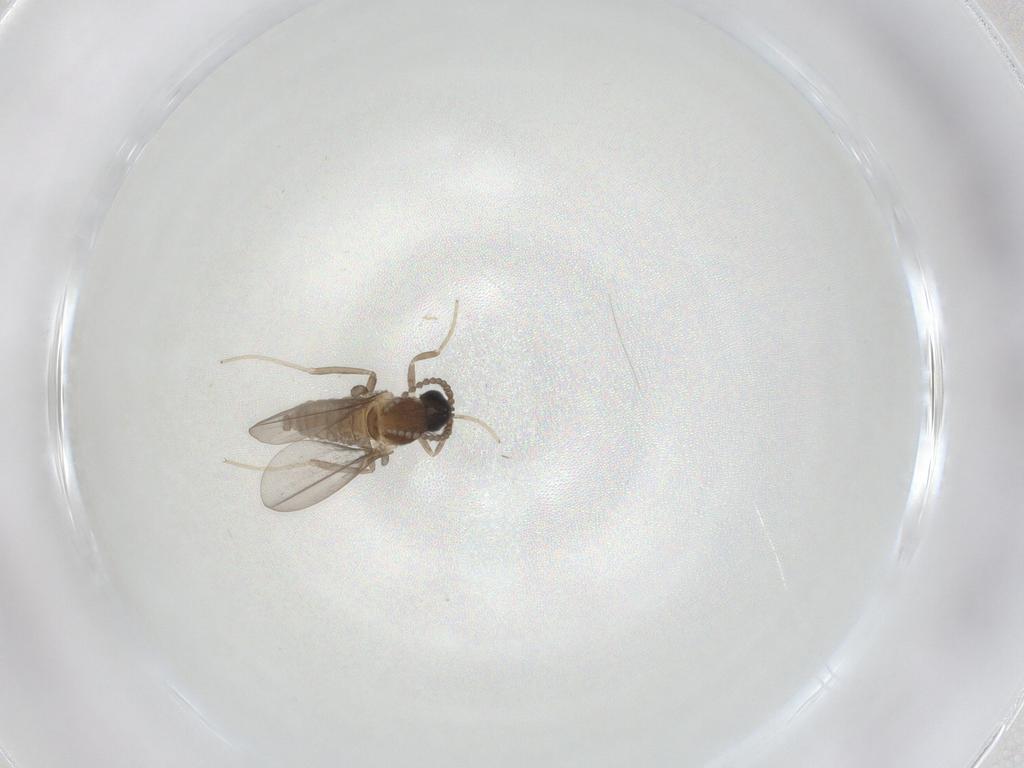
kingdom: Animalia
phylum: Arthropoda
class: Insecta
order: Diptera
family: Cecidomyiidae
